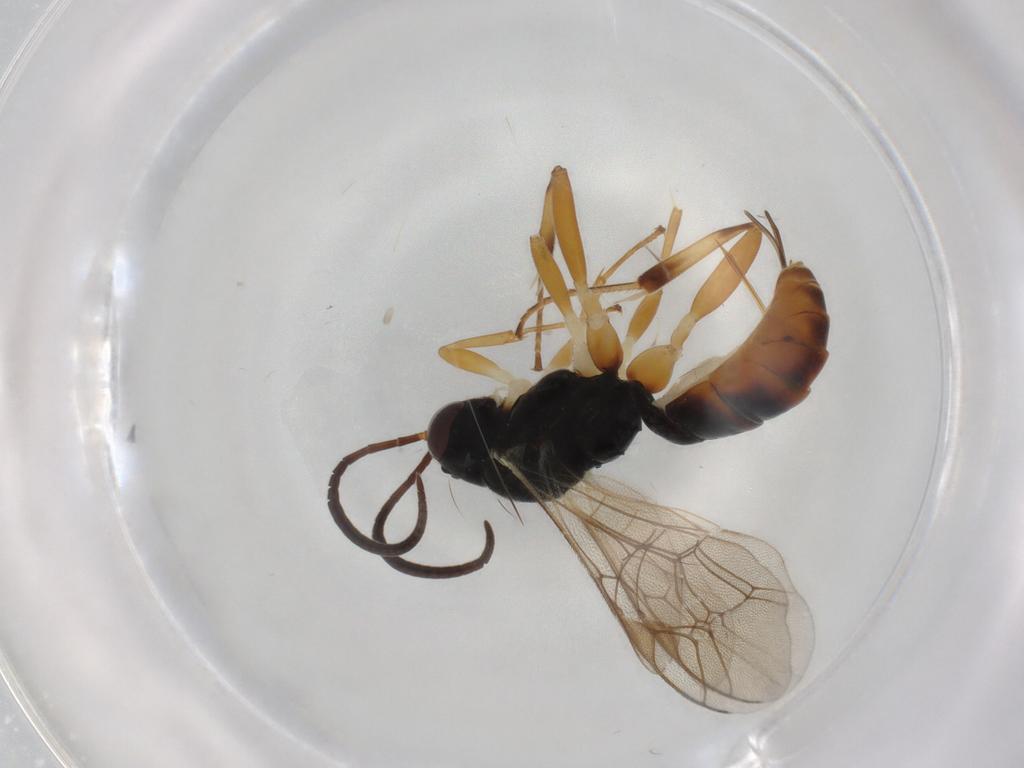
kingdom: Animalia
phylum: Arthropoda
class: Insecta
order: Hymenoptera
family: Ichneumonidae
